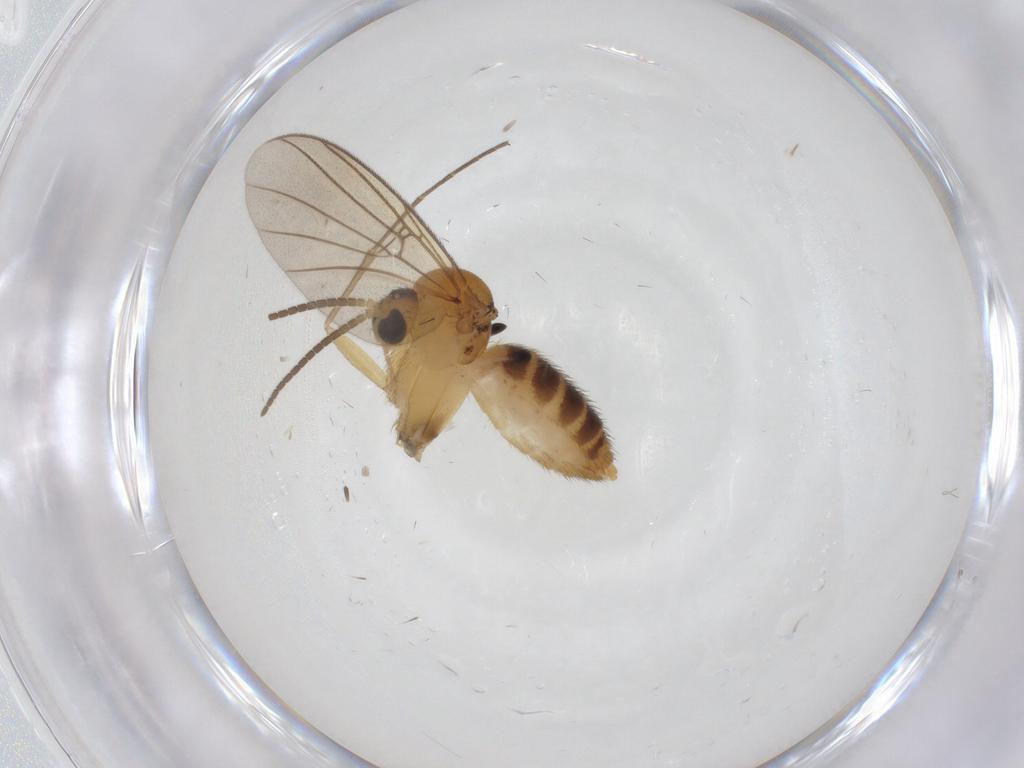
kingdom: Animalia
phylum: Arthropoda
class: Insecta
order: Diptera
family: Mycetophilidae
